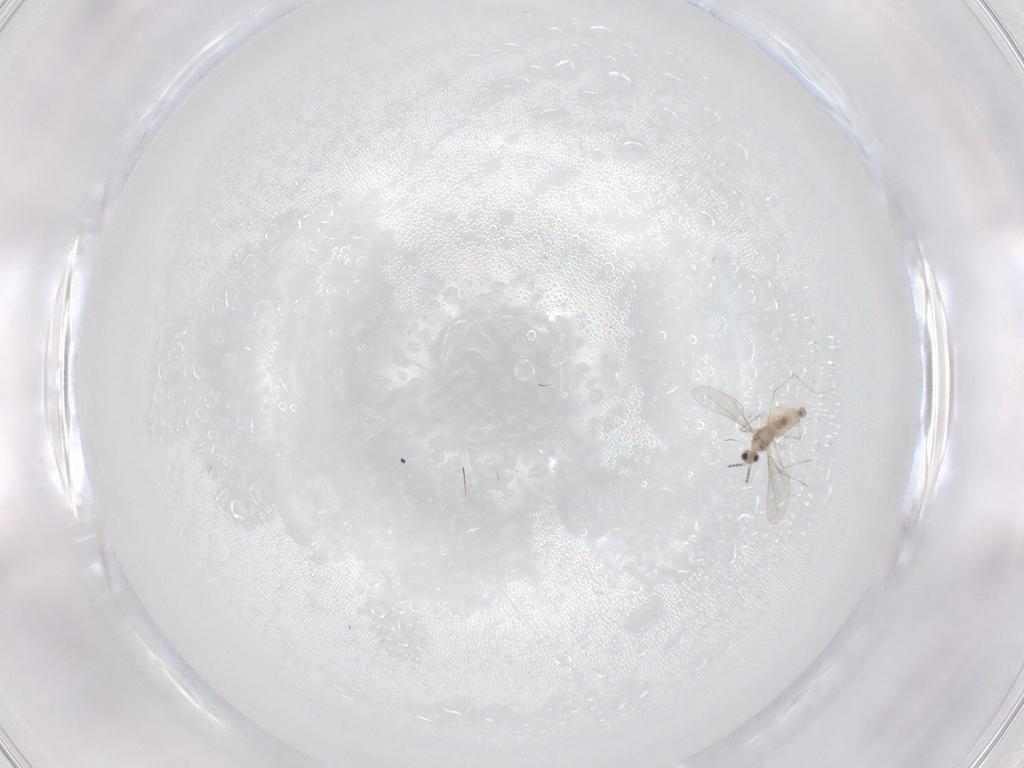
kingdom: Animalia
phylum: Arthropoda
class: Insecta
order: Diptera
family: Cecidomyiidae
